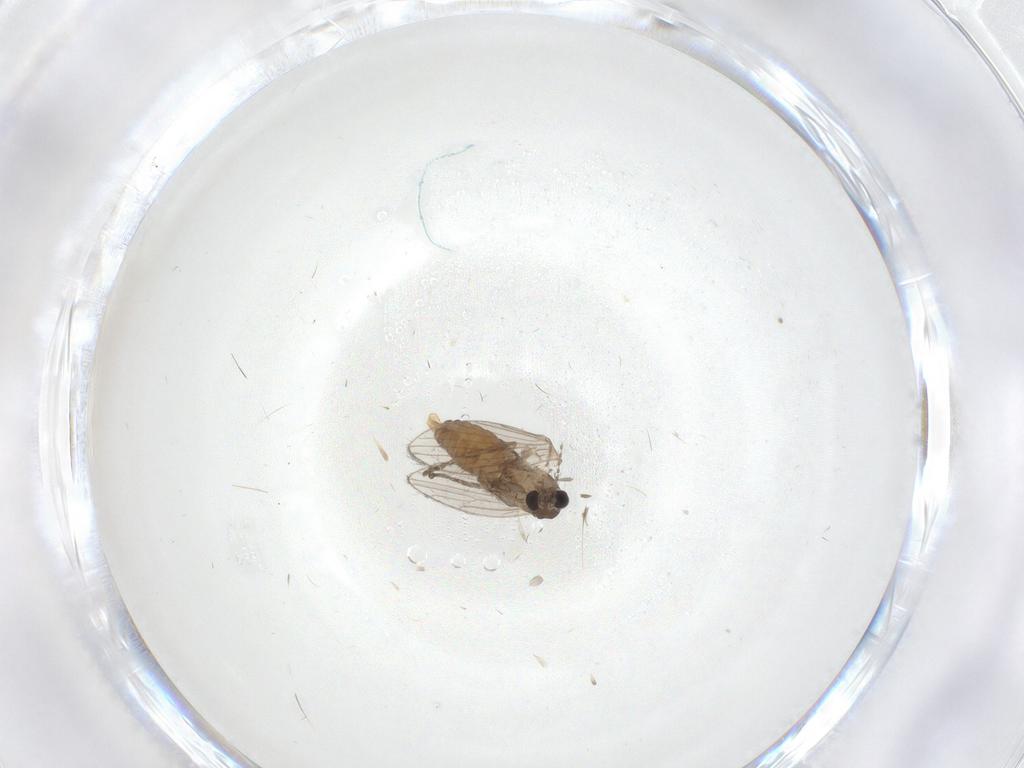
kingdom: Animalia
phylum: Arthropoda
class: Insecta
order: Diptera
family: Psychodidae
